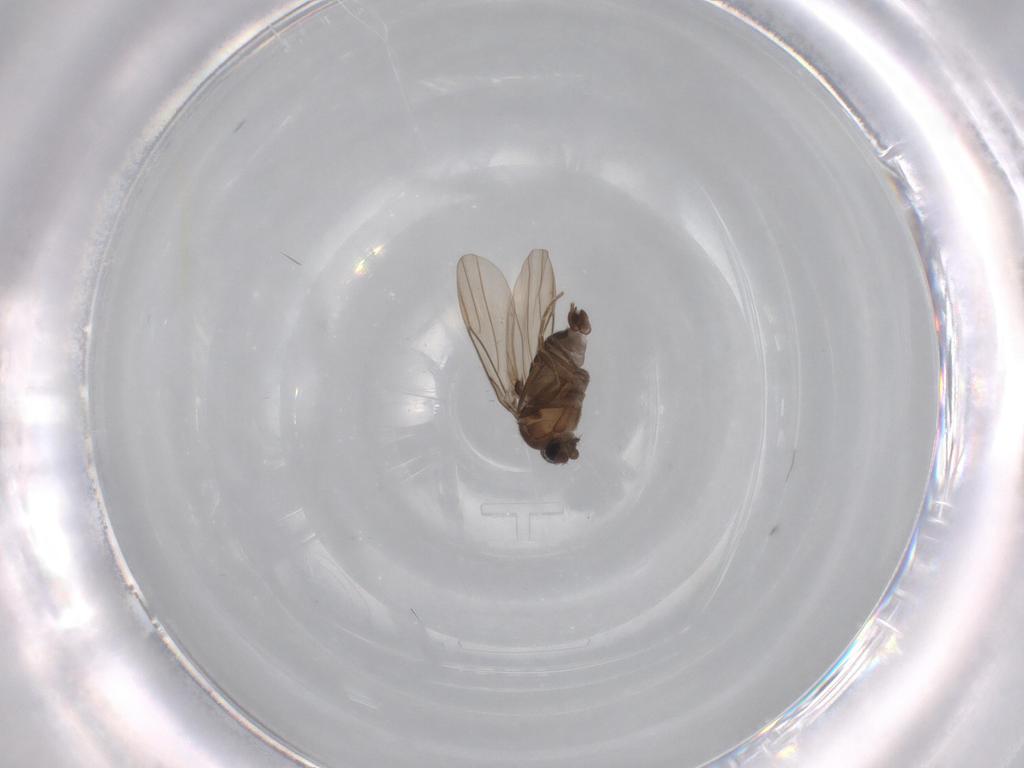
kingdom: Animalia
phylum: Arthropoda
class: Insecta
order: Diptera
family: Phoridae
